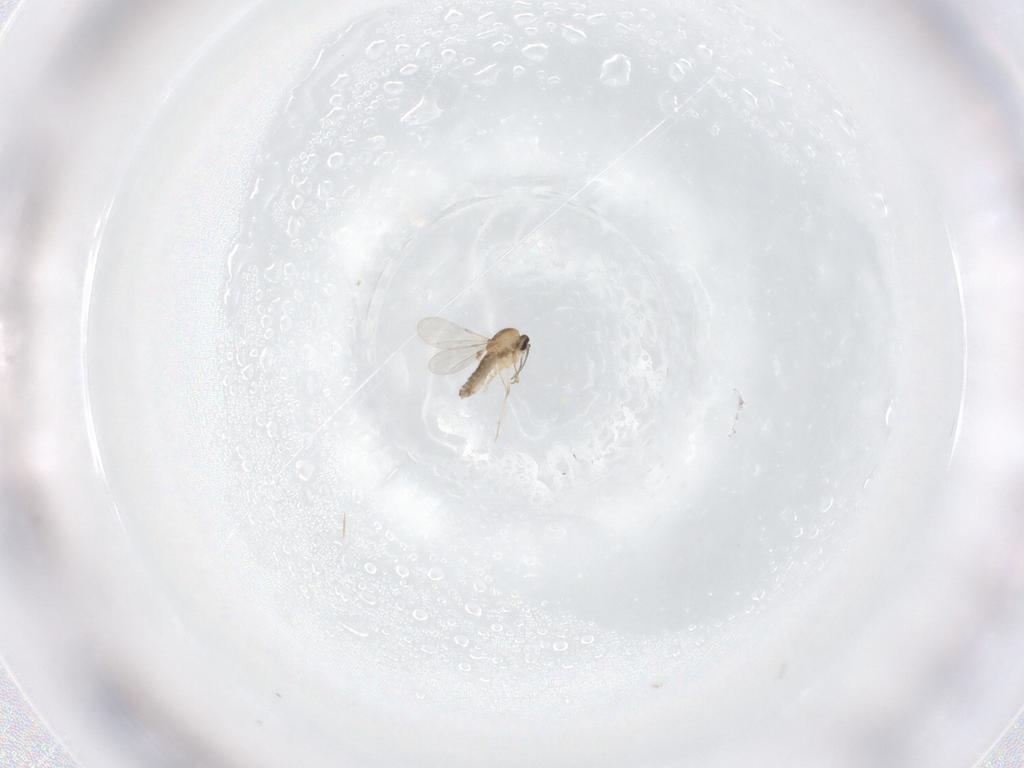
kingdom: Animalia
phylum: Arthropoda
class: Insecta
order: Diptera
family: Ceratopogonidae
